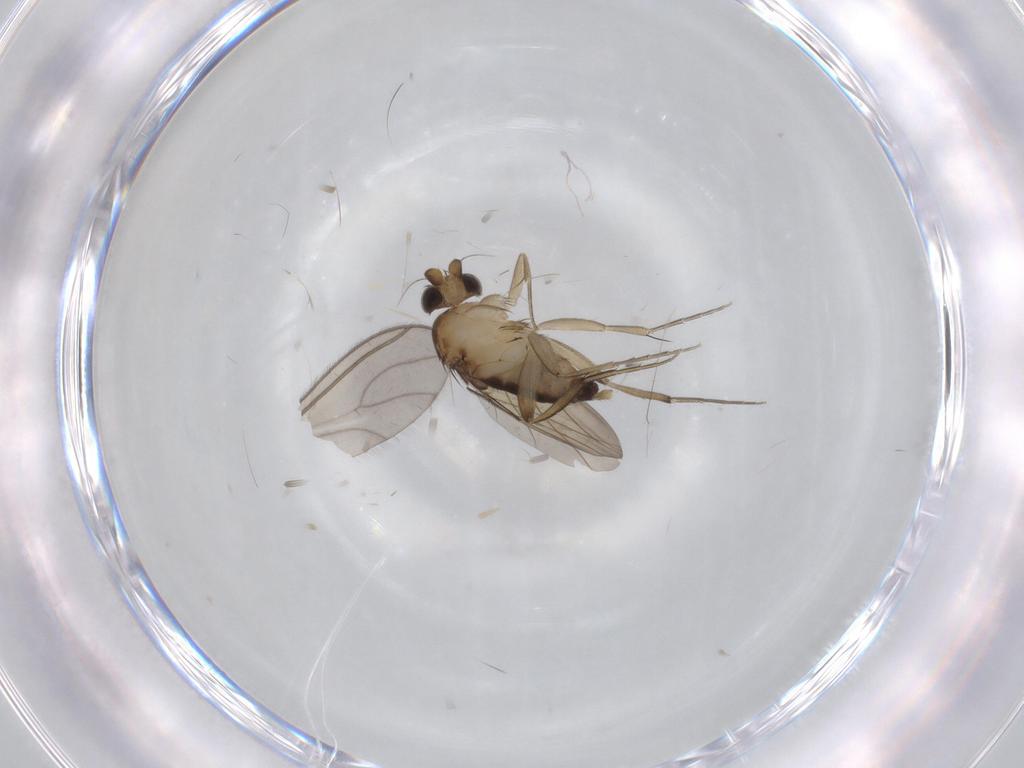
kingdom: Animalia
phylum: Arthropoda
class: Insecta
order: Diptera
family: Phoridae
